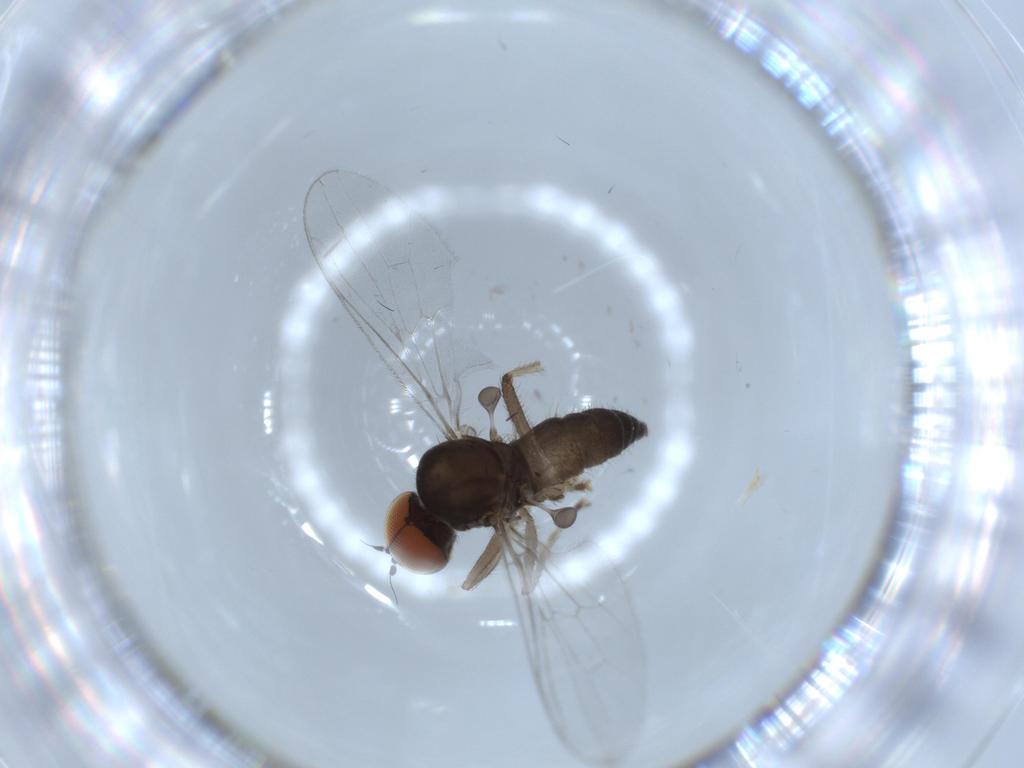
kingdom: Animalia
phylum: Arthropoda
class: Insecta
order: Diptera
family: Hybotidae
